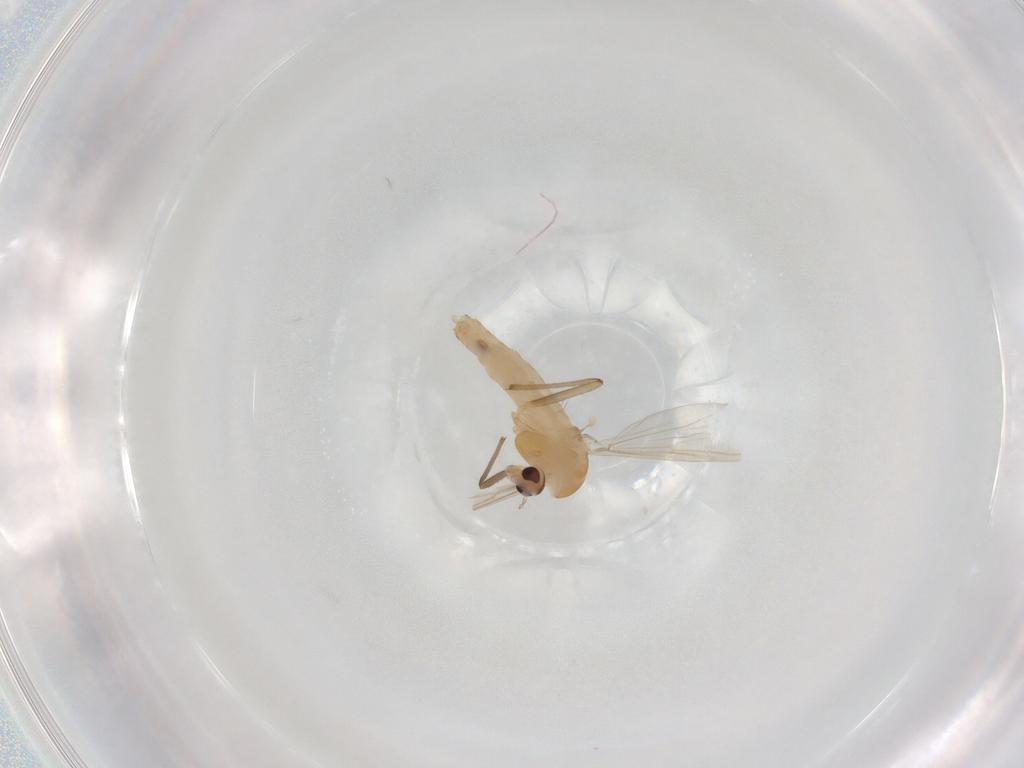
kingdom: Animalia
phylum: Arthropoda
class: Insecta
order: Diptera
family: Chironomidae
